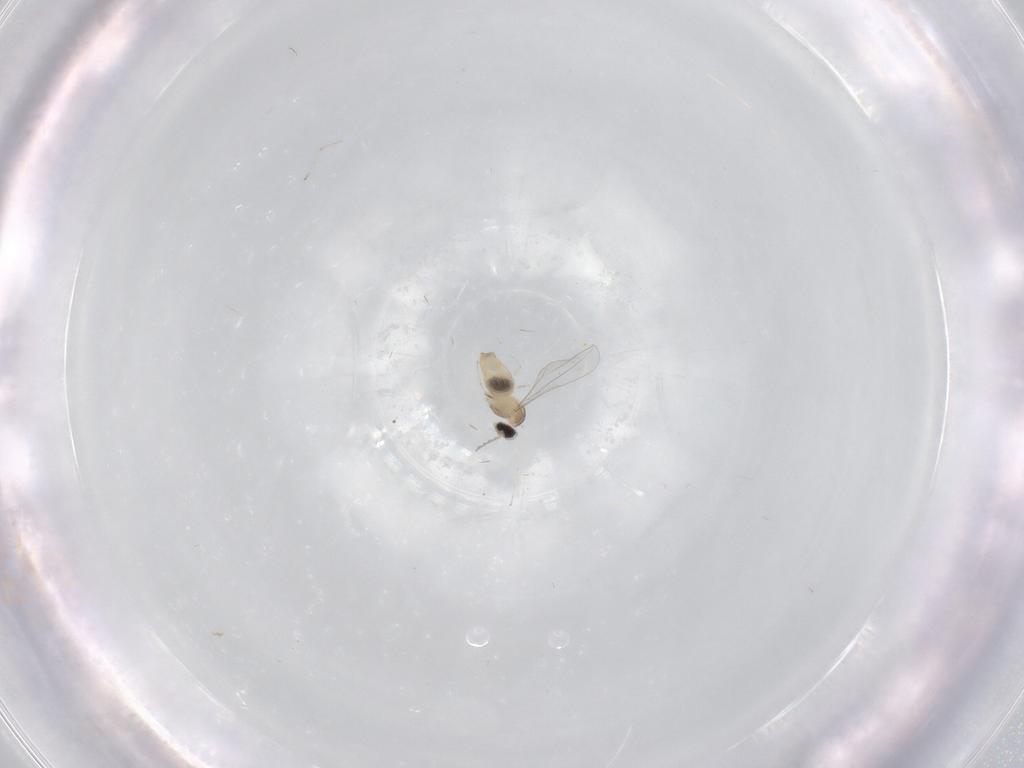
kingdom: Animalia
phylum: Arthropoda
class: Insecta
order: Diptera
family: Cecidomyiidae
